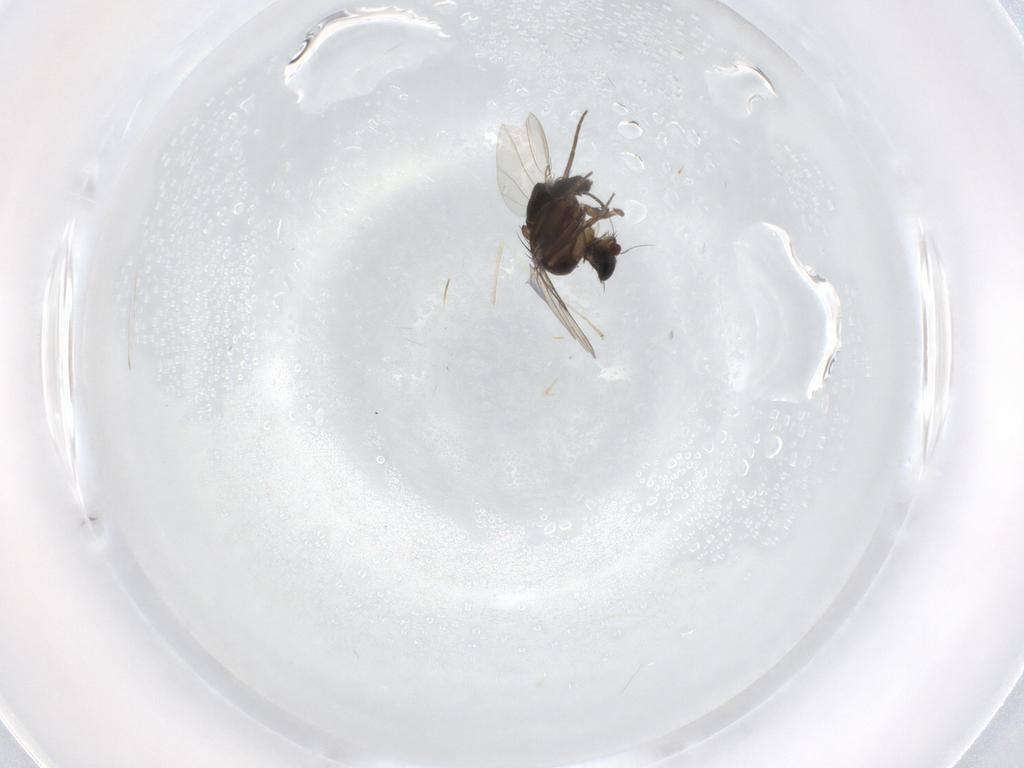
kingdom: Animalia
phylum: Arthropoda
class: Insecta
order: Diptera
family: Phoridae
